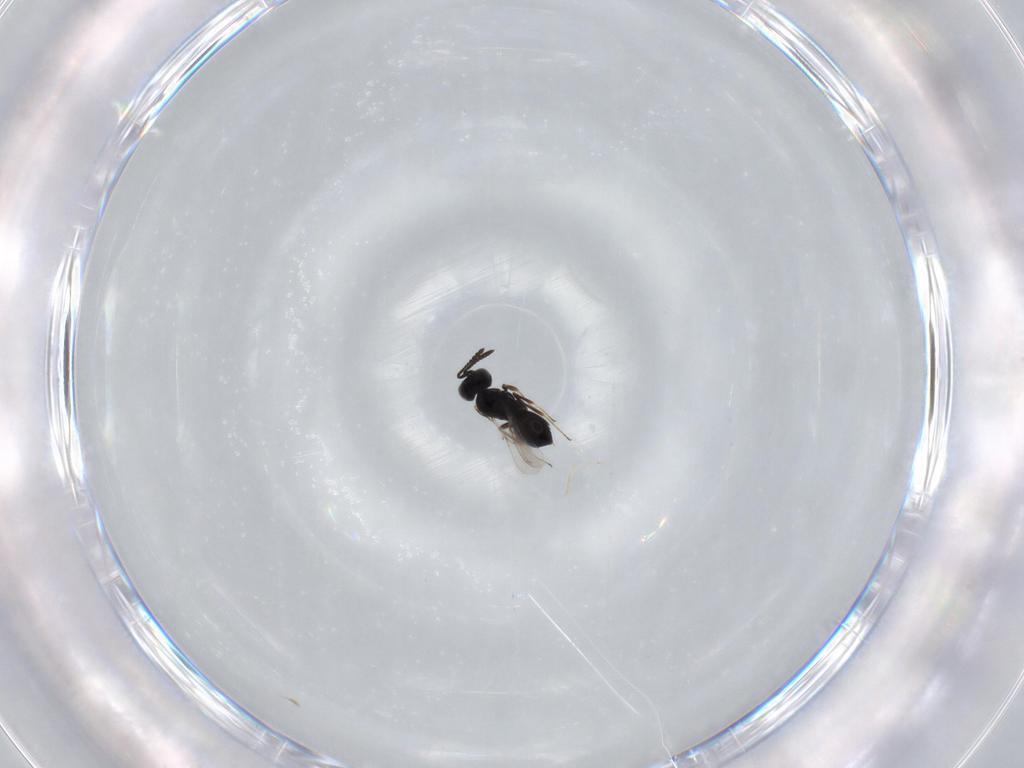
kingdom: Animalia
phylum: Arthropoda
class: Insecta
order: Hymenoptera
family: Scelionidae
